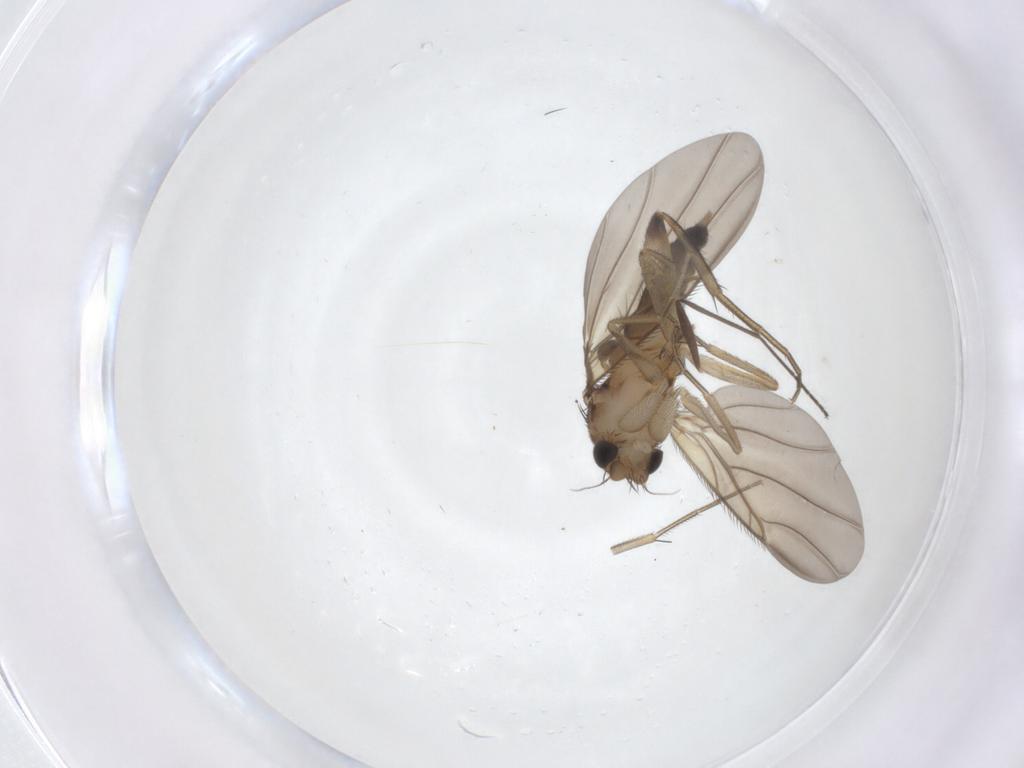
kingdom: Animalia
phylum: Arthropoda
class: Insecta
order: Diptera
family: Phoridae
